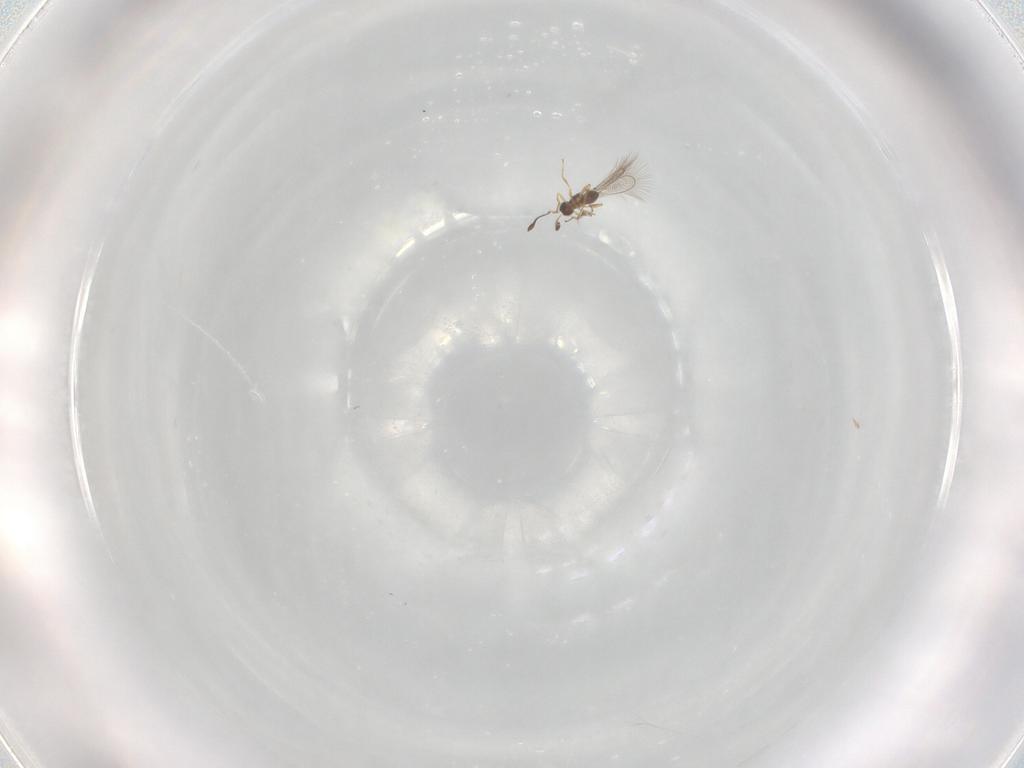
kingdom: Animalia
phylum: Arthropoda
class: Insecta
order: Hymenoptera
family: Mymaridae
